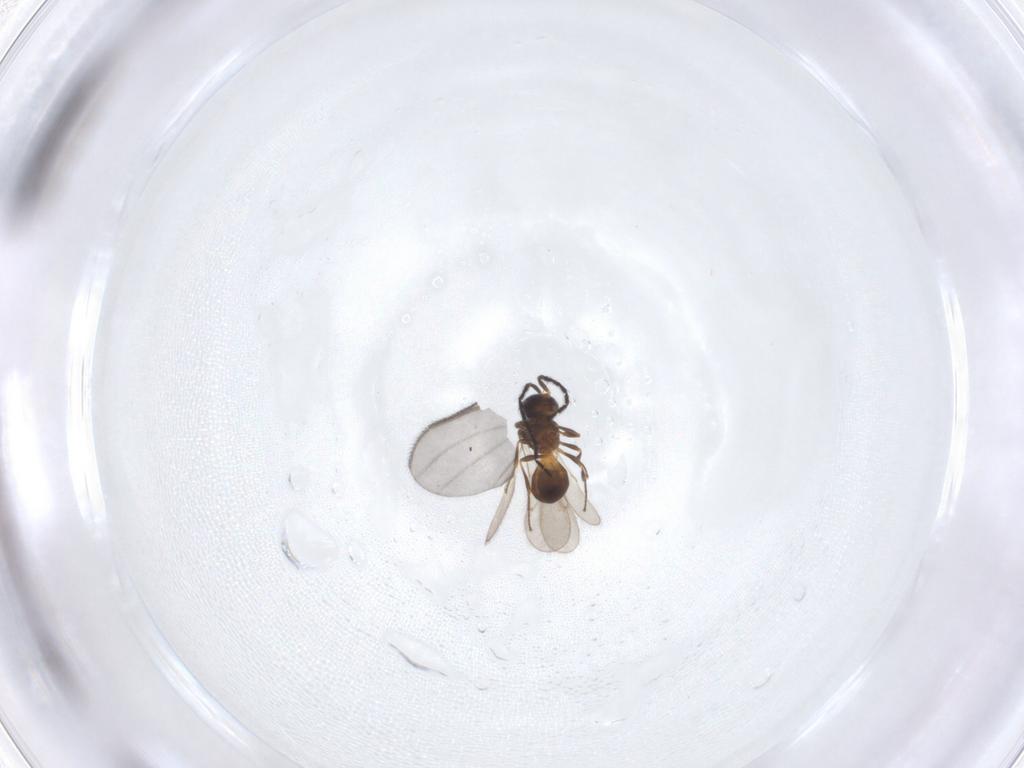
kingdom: Animalia
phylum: Arthropoda
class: Insecta
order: Hymenoptera
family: Scelionidae
